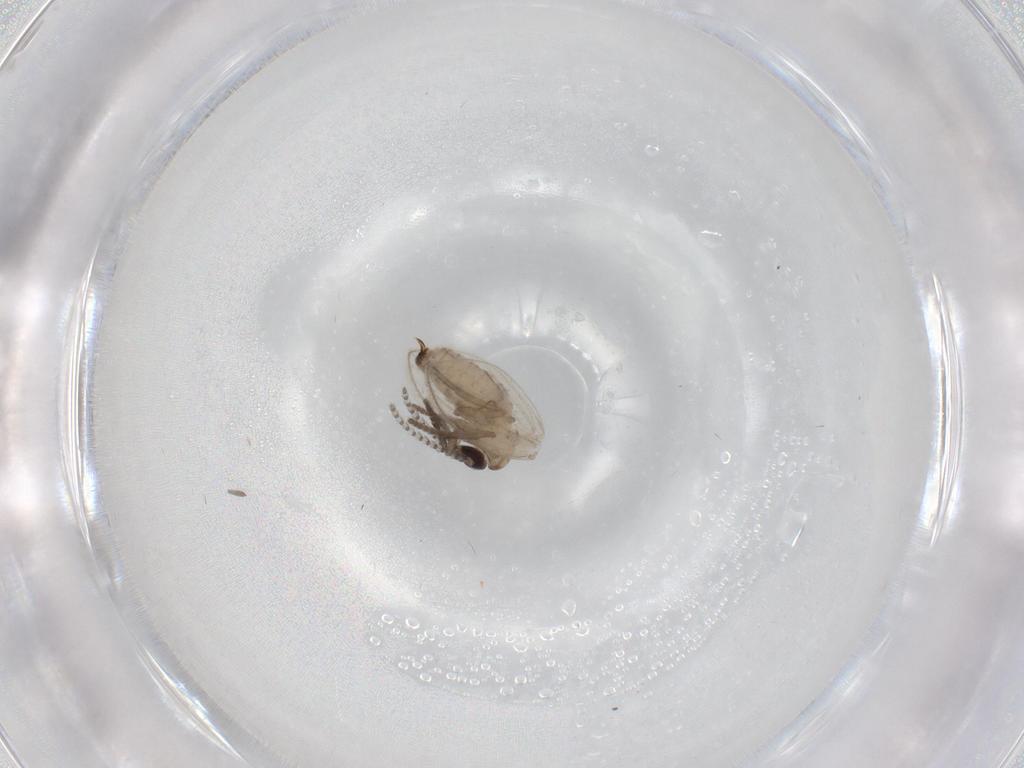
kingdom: Animalia
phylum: Arthropoda
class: Insecta
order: Diptera
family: Psychodidae
